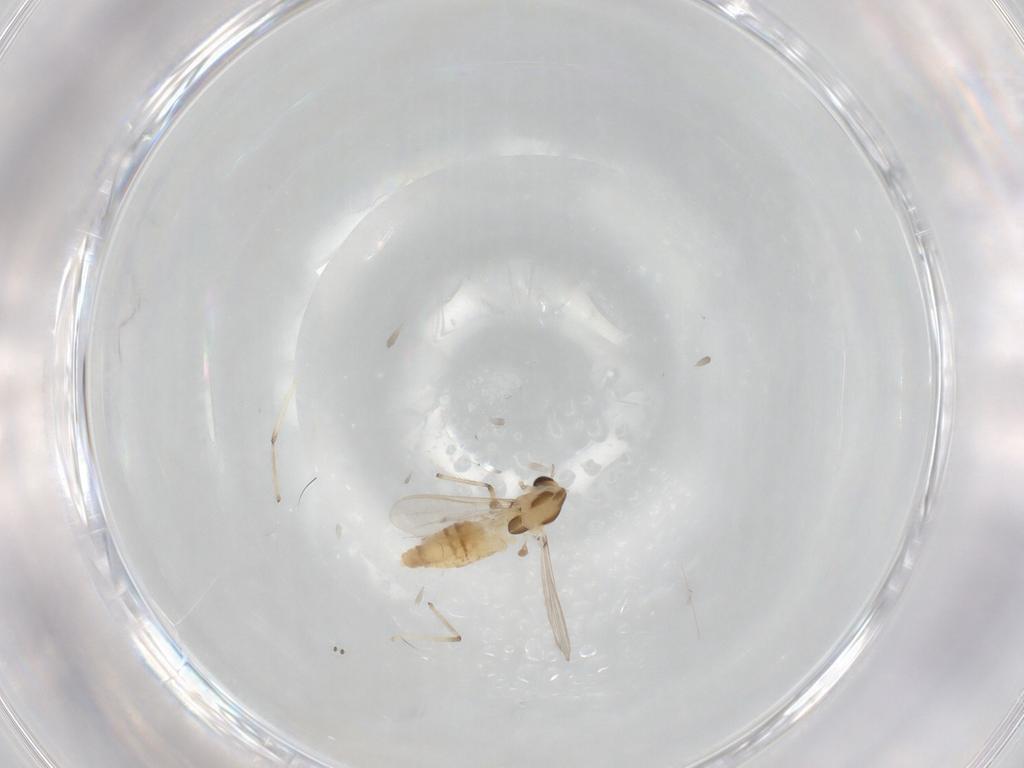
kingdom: Animalia
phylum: Arthropoda
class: Insecta
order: Diptera
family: Chironomidae
